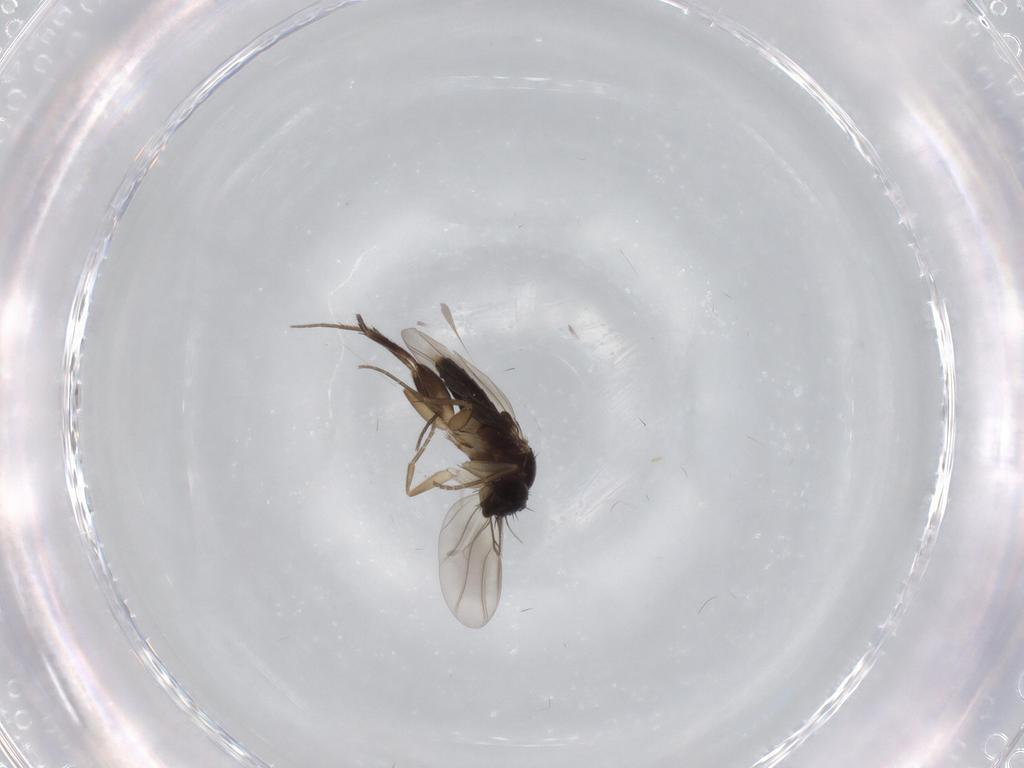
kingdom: Animalia
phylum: Arthropoda
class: Insecta
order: Diptera
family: Phoridae
